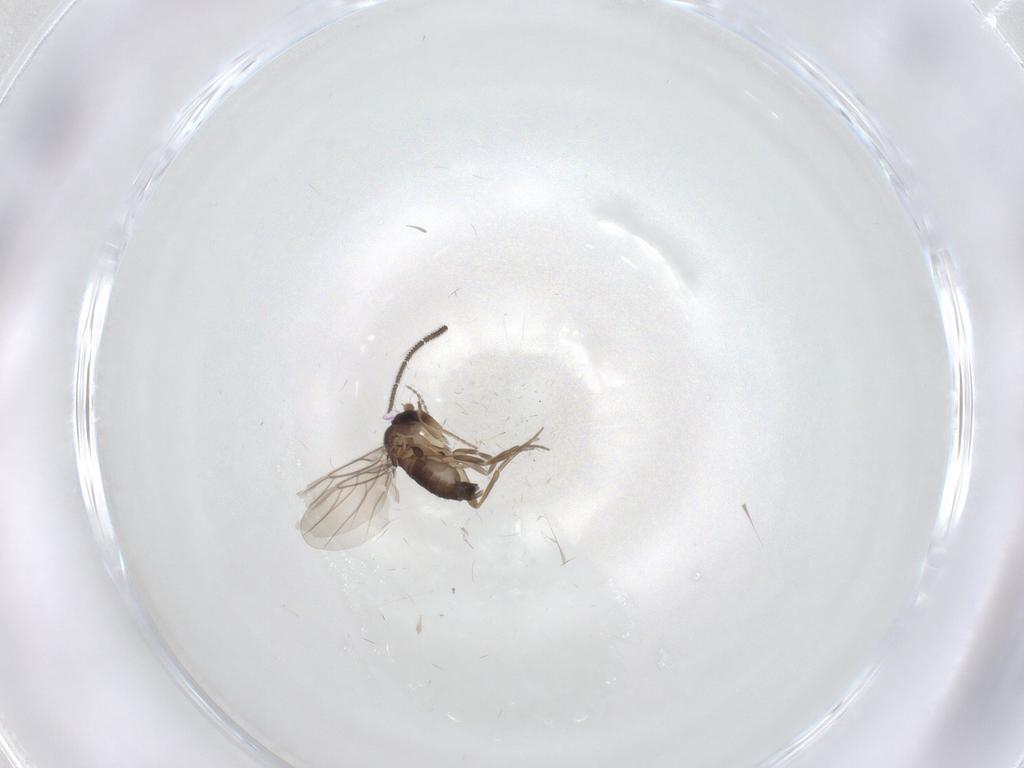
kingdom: Animalia
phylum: Arthropoda
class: Insecta
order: Diptera
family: Phoridae
